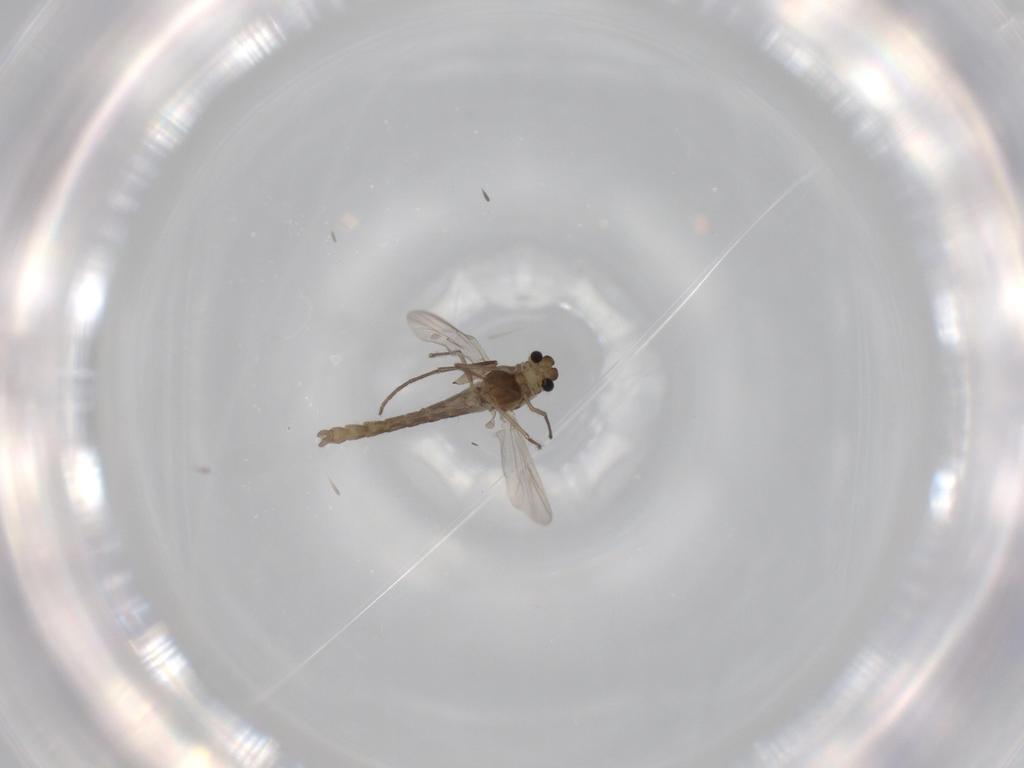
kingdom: Animalia
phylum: Arthropoda
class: Insecta
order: Diptera
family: Chironomidae
